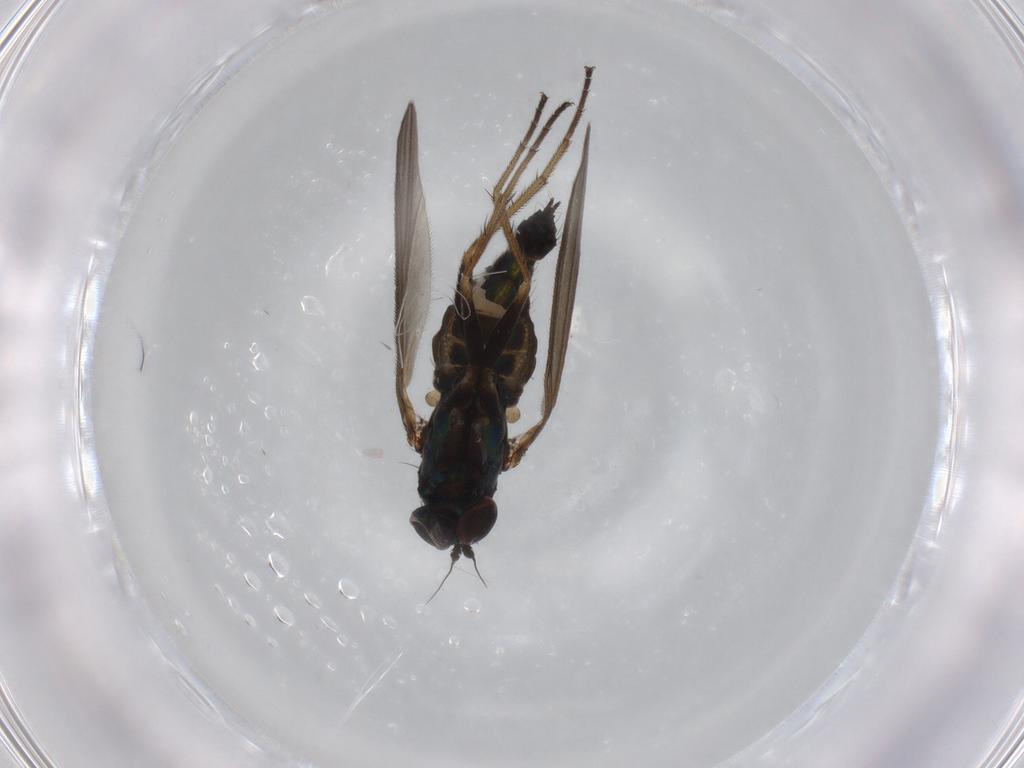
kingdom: Animalia
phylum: Arthropoda
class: Insecta
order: Diptera
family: Dolichopodidae
